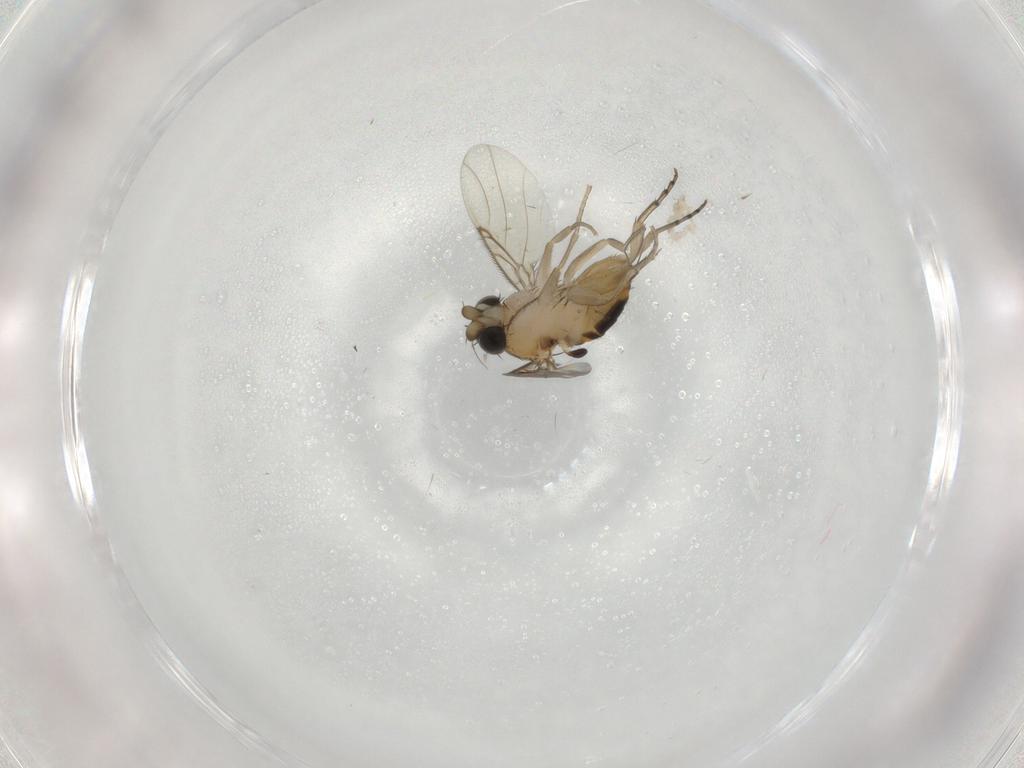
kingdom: Animalia
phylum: Arthropoda
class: Insecta
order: Diptera
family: Phoridae
